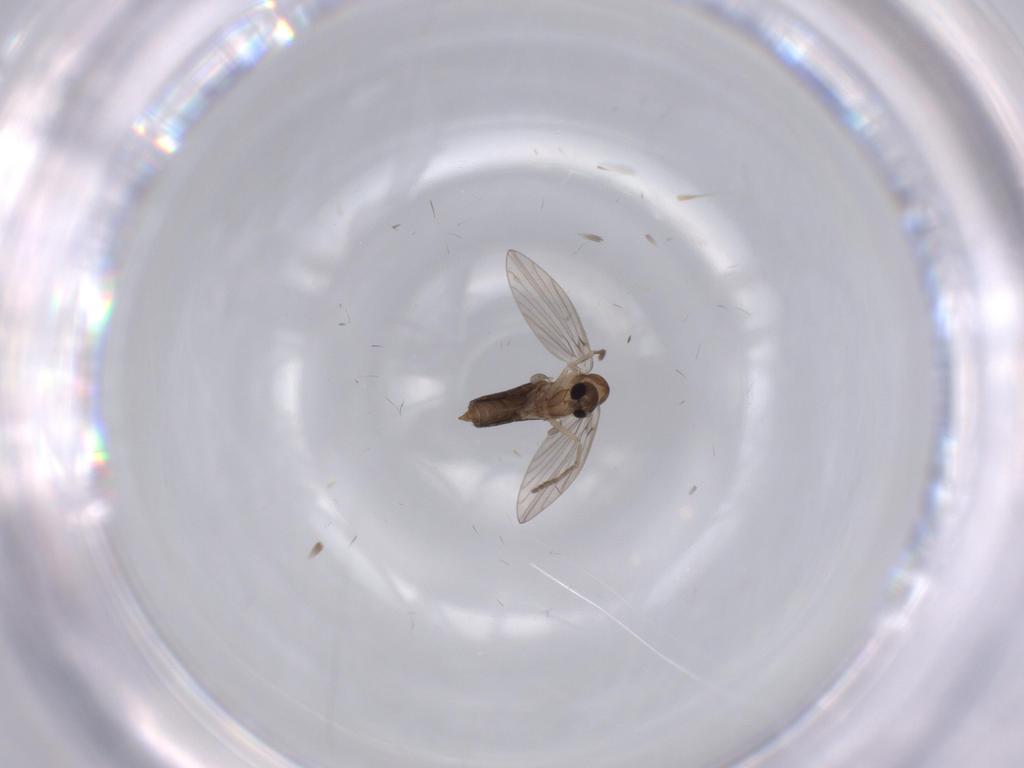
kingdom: Animalia
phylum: Arthropoda
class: Insecta
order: Diptera
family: Psychodidae
